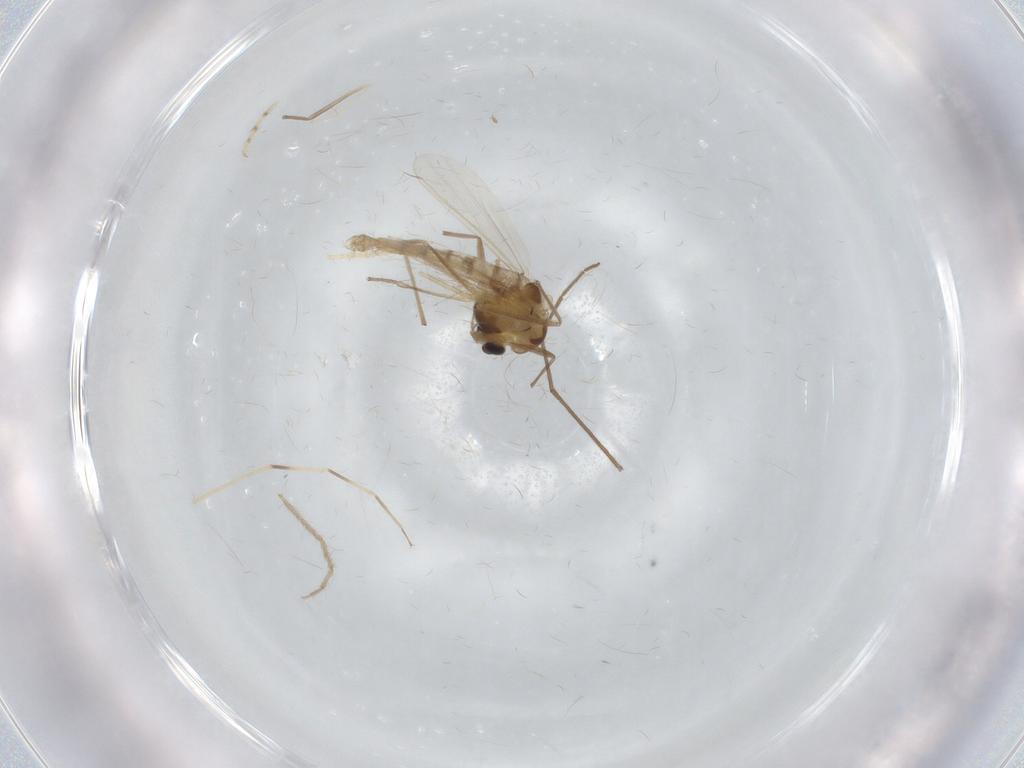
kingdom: Animalia
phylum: Arthropoda
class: Insecta
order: Diptera
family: Chironomidae
